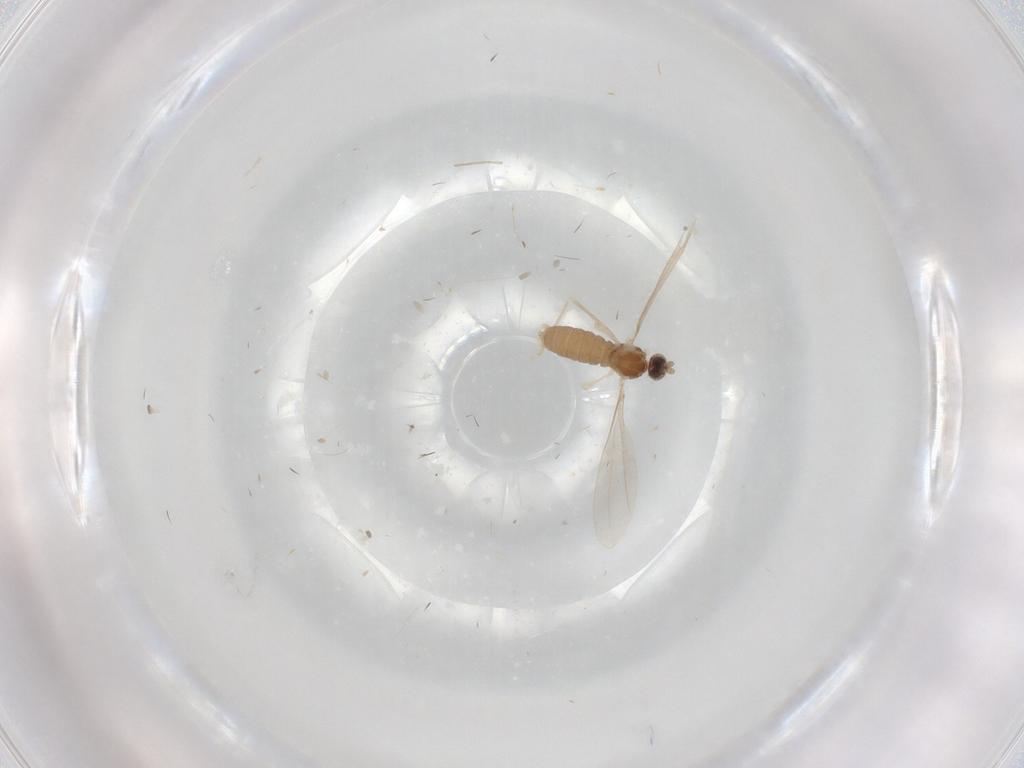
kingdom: Animalia
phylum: Arthropoda
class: Insecta
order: Diptera
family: Cecidomyiidae
